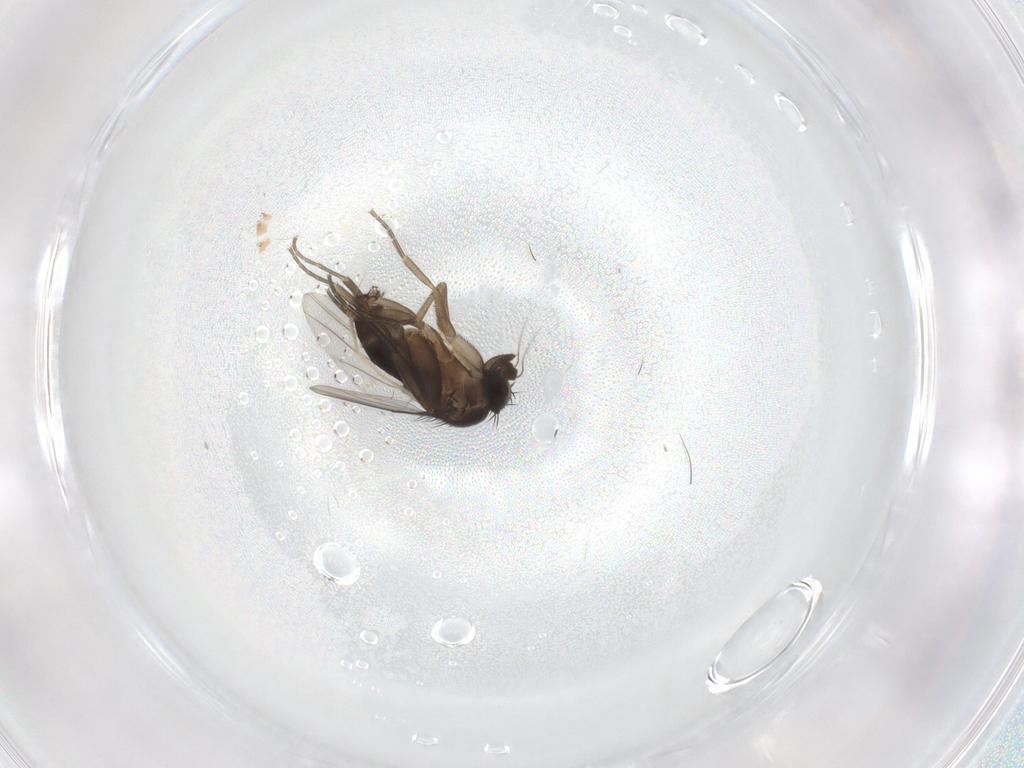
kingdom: Animalia
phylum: Arthropoda
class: Insecta
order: Diptera
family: Phoridae
